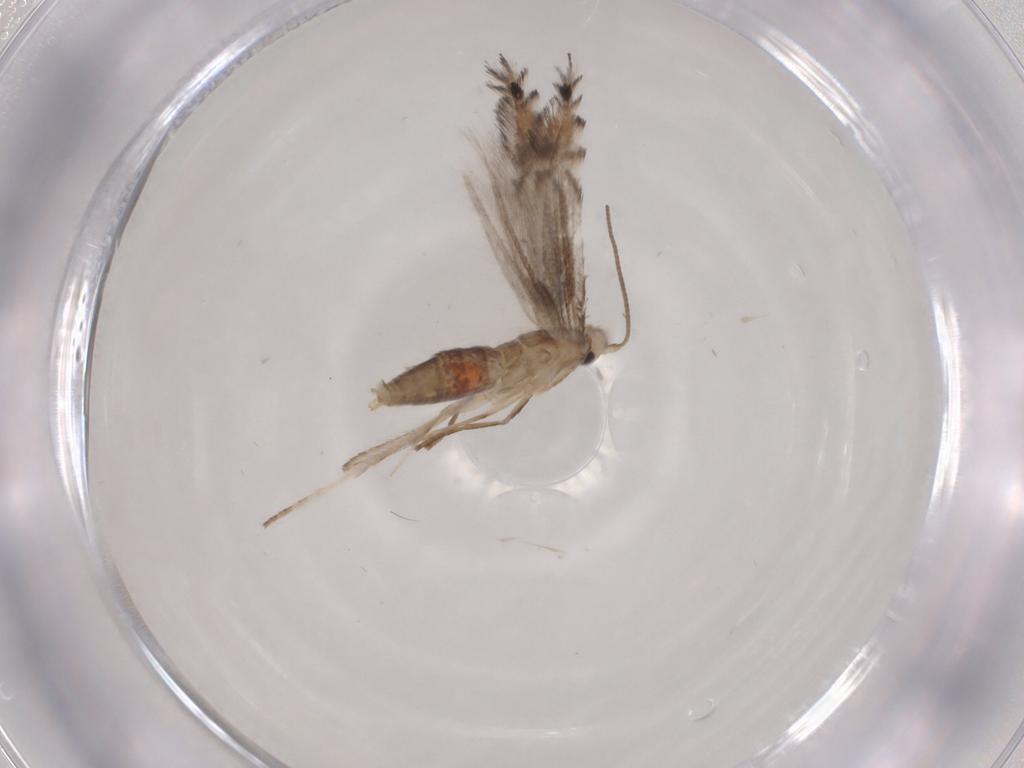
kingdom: Animalia
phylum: Arthropoda
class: Insecta
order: Lepidoptera
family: Gracillariidae
